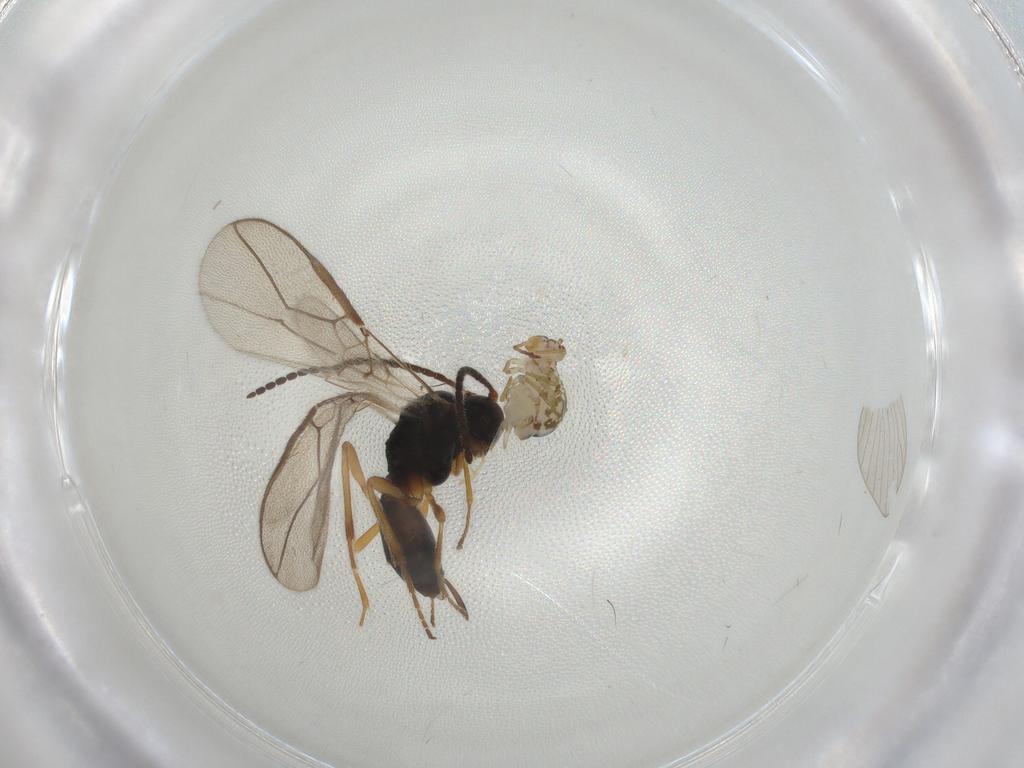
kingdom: Animalia
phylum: Arthropoda
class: Insecta
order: Hymenoptera
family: Braconidae
